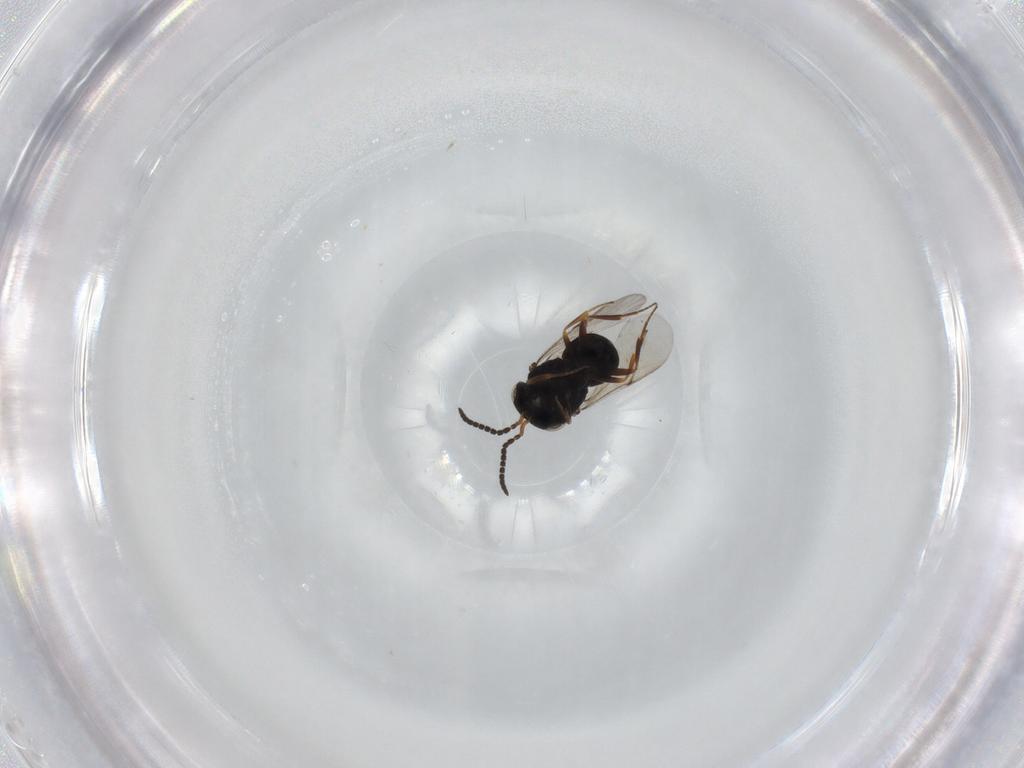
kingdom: Animalia
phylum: Arthropoda
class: Insecta
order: Hymenoptera
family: Scelionidae
